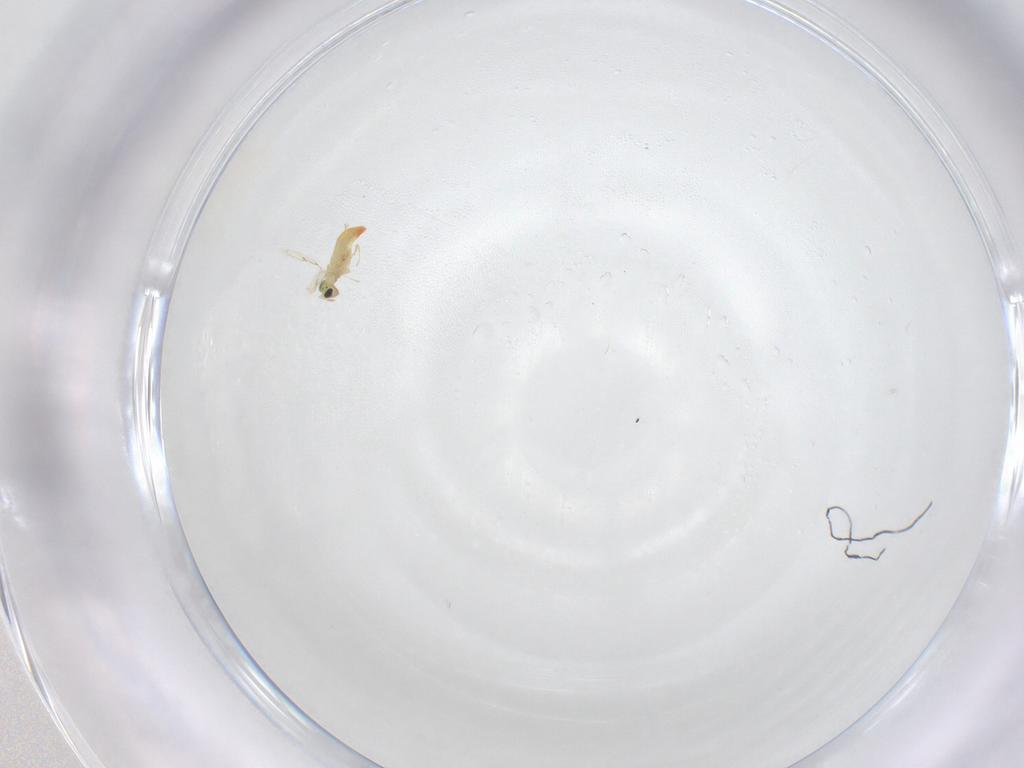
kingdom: Animalia
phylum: Arthropoda
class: Insecta
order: Hymenoptera
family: Trichogrammatidae
